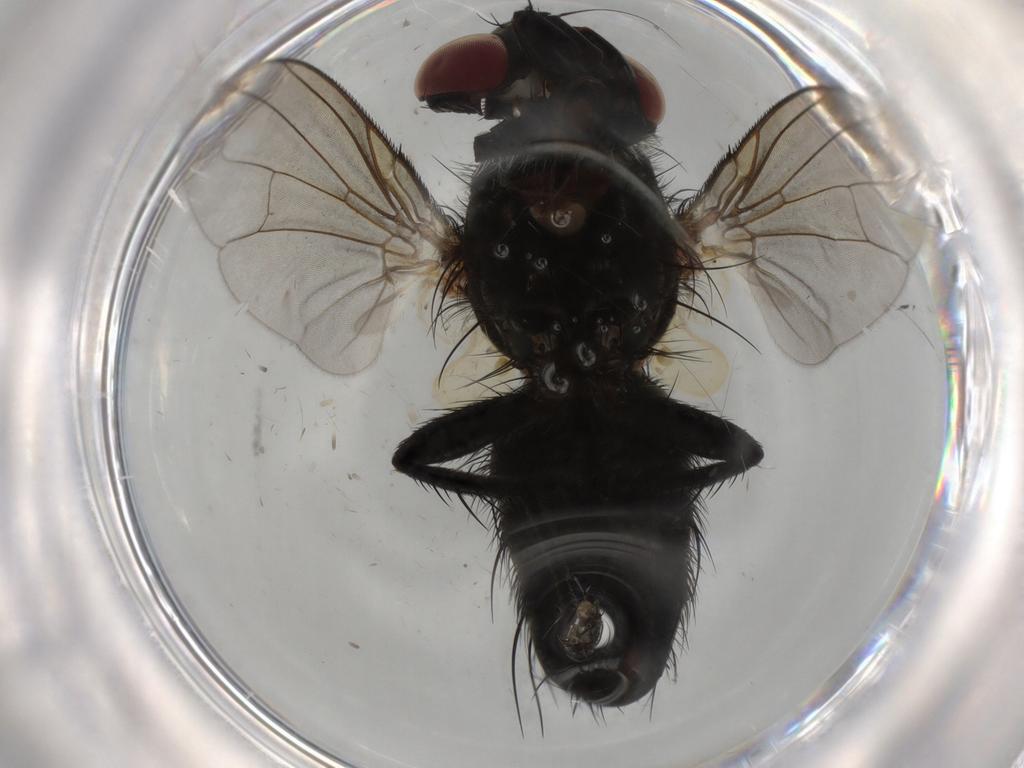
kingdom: Animalia
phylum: Arthropoda
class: Insecta
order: Diptera
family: Tachinidae
